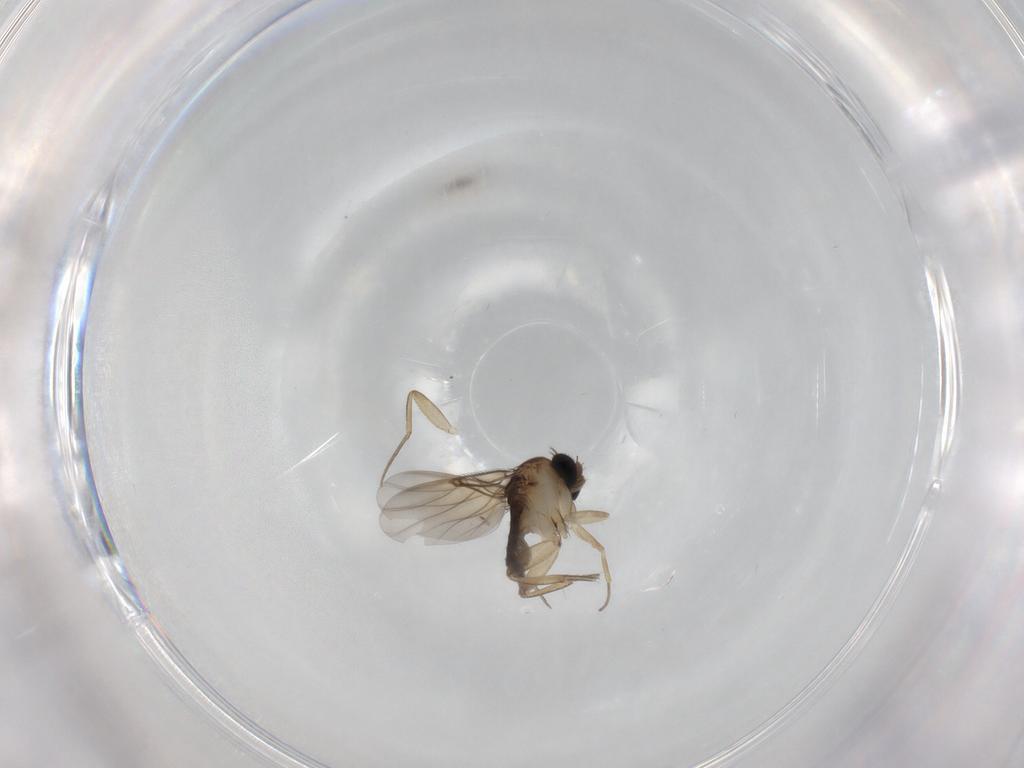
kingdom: Animalia
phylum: Arthropoda
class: Insecta
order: Diptera
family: Phoridae
